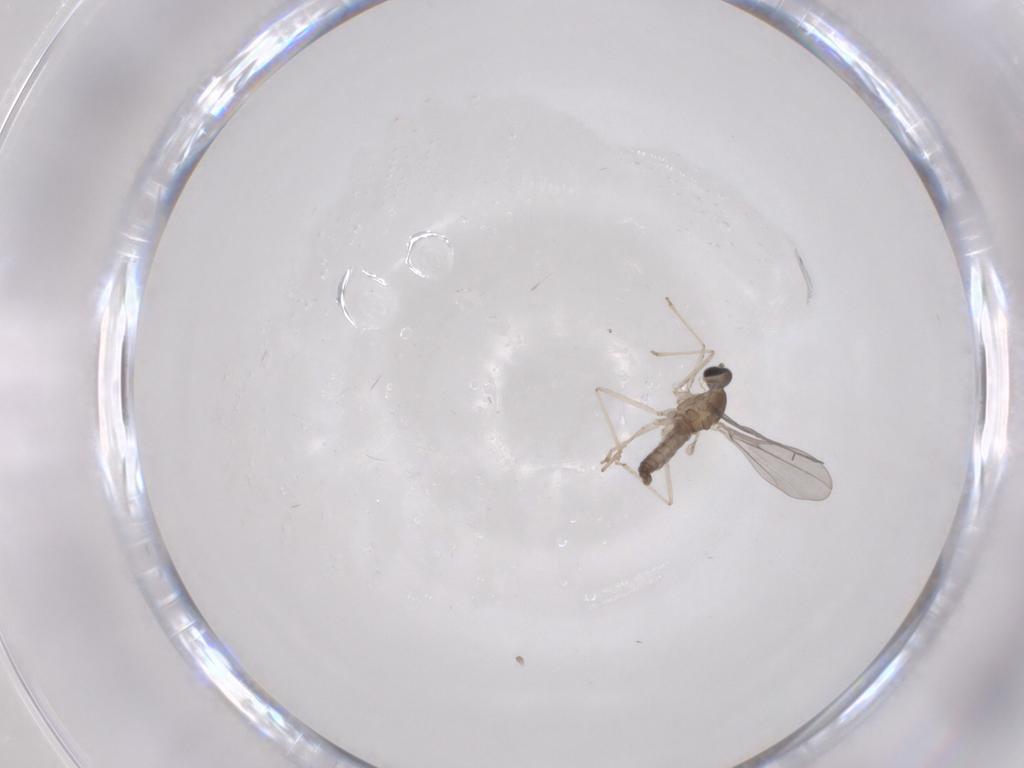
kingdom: Animalia
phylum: Arthropoda
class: Insecta
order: Diptera
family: Cecidomyiidae
